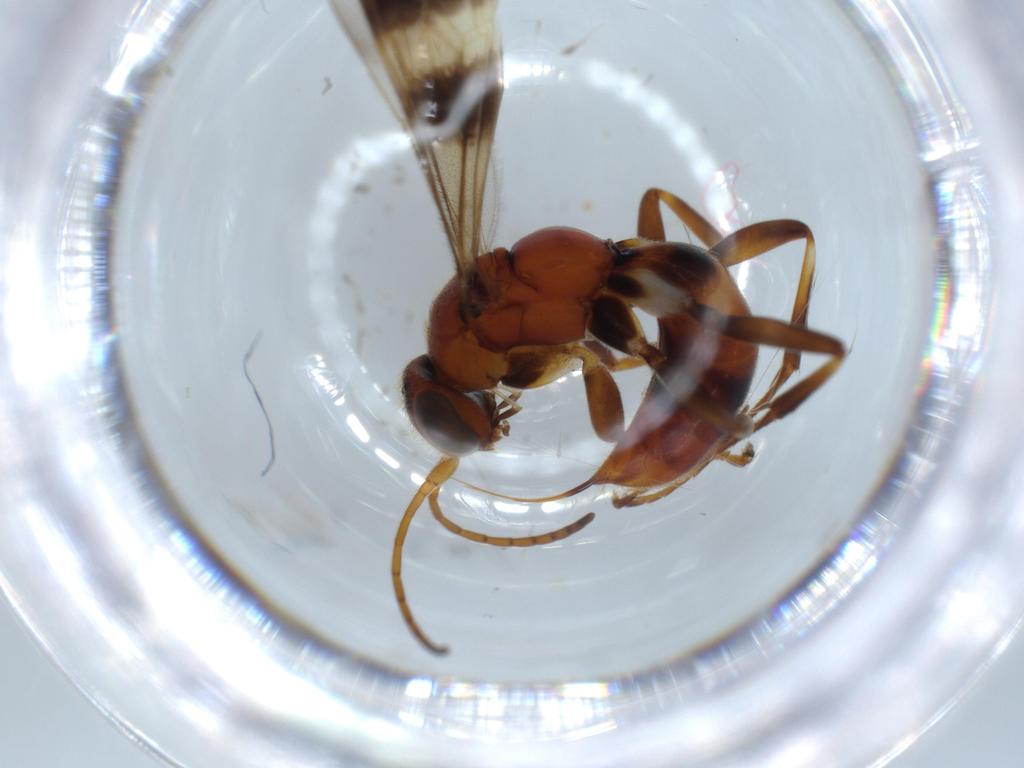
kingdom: Animalia
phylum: Arthropoda
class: Insecta
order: Hymenoptera
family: Pompilidae
